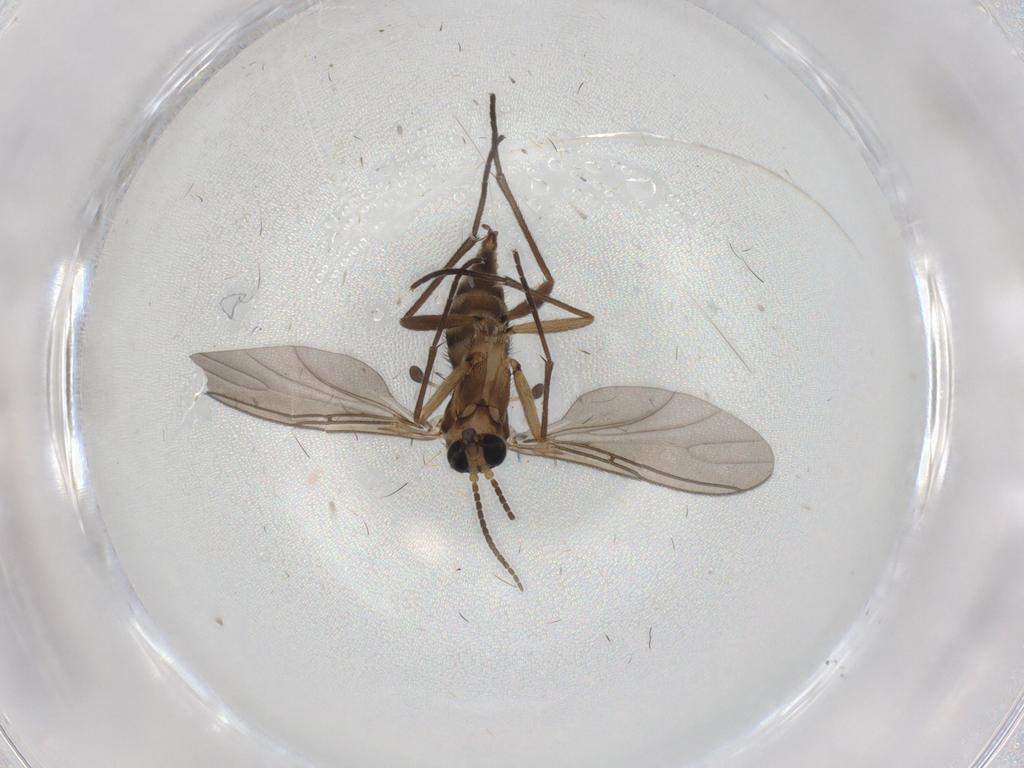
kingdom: Animalia
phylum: Arthropoda
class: Insecta
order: Diptera
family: Sciaridae
